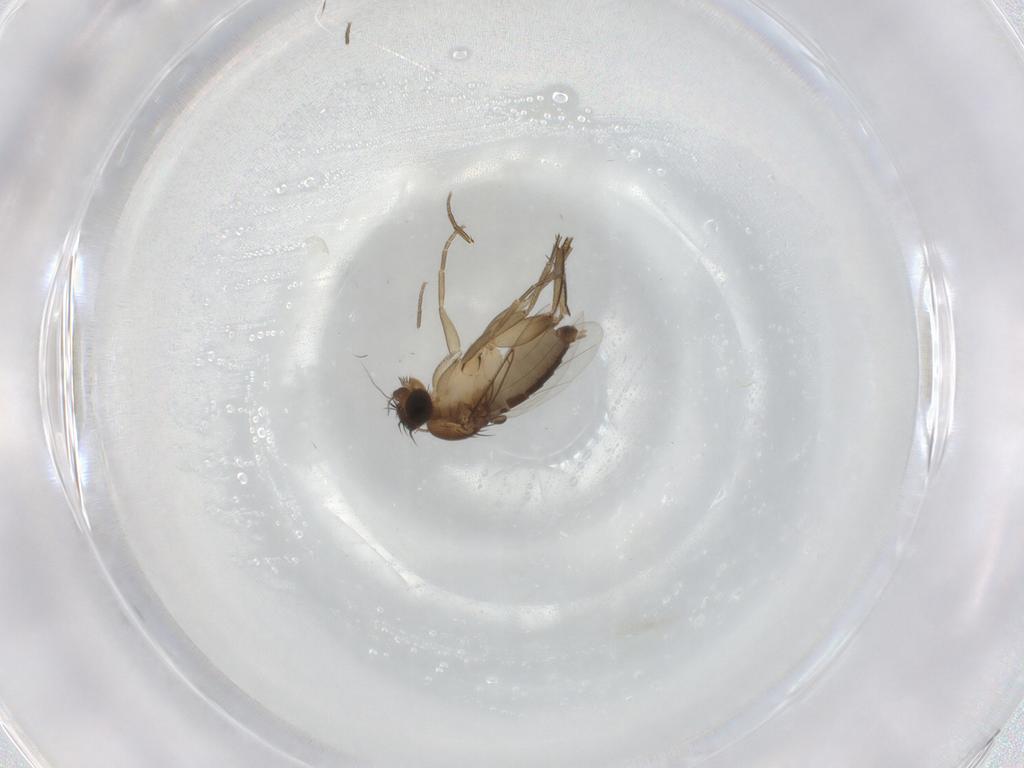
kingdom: Animalia
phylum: Arthropoda
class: Insecta
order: Diptera
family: Phoridae
